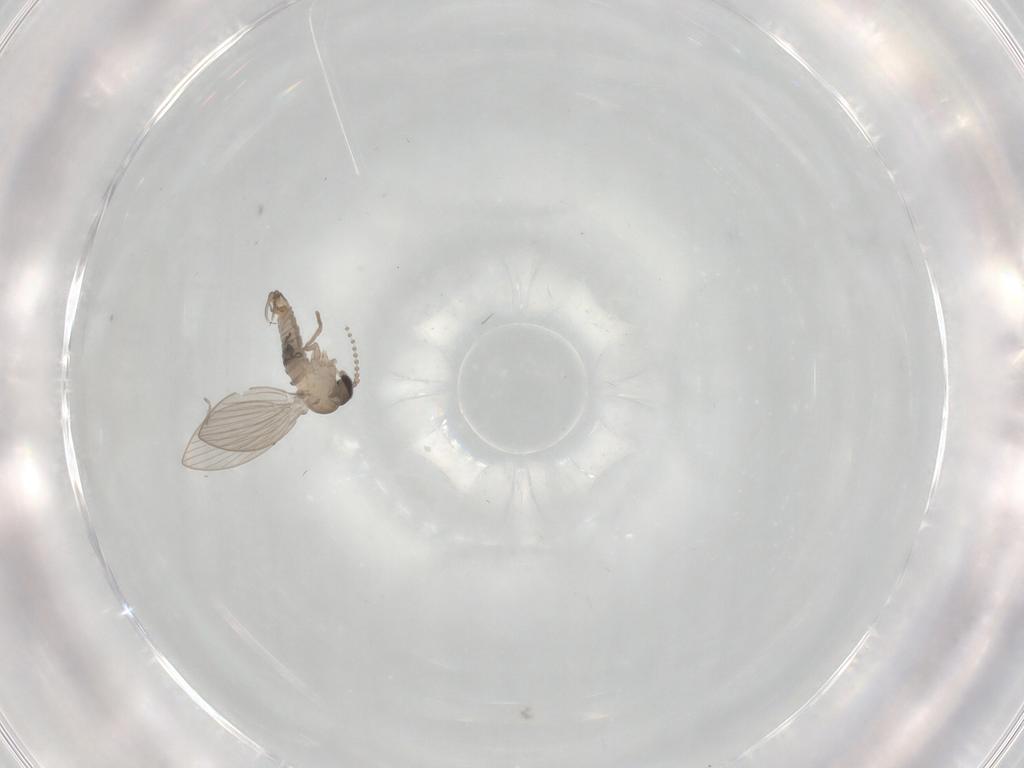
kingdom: Animalia
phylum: Arthropoda
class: Insecta
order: Diptera
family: Psychodidae
